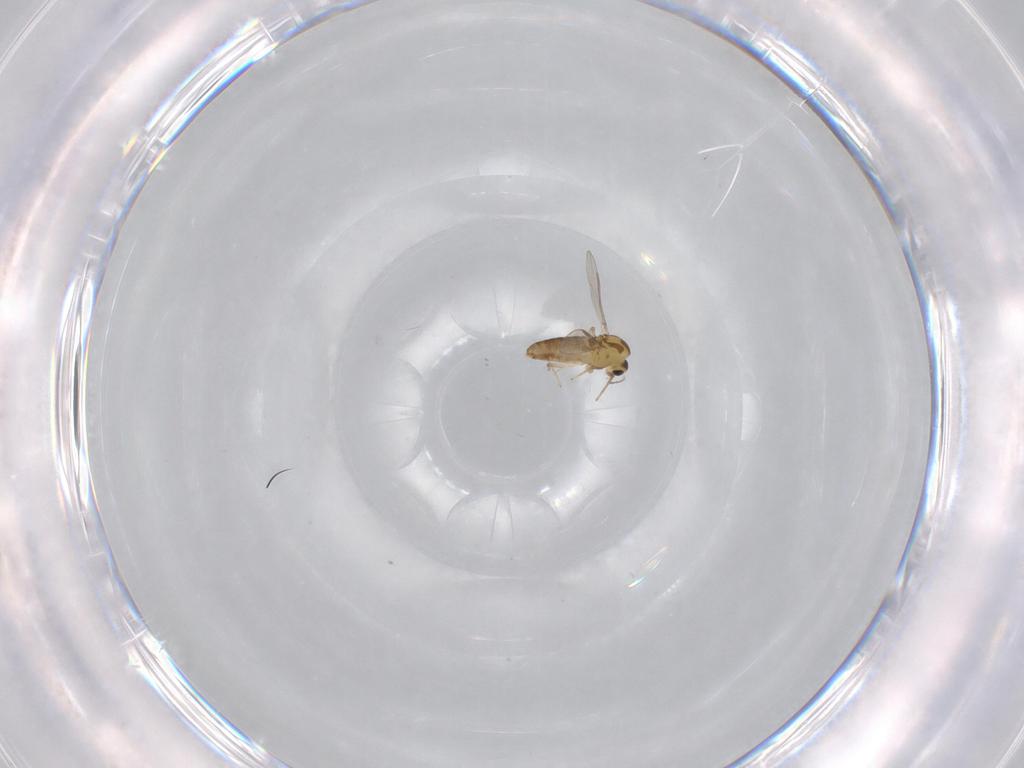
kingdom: Animalia
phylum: Arthropoda
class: Insecta
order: Diptera
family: Chironomidae
